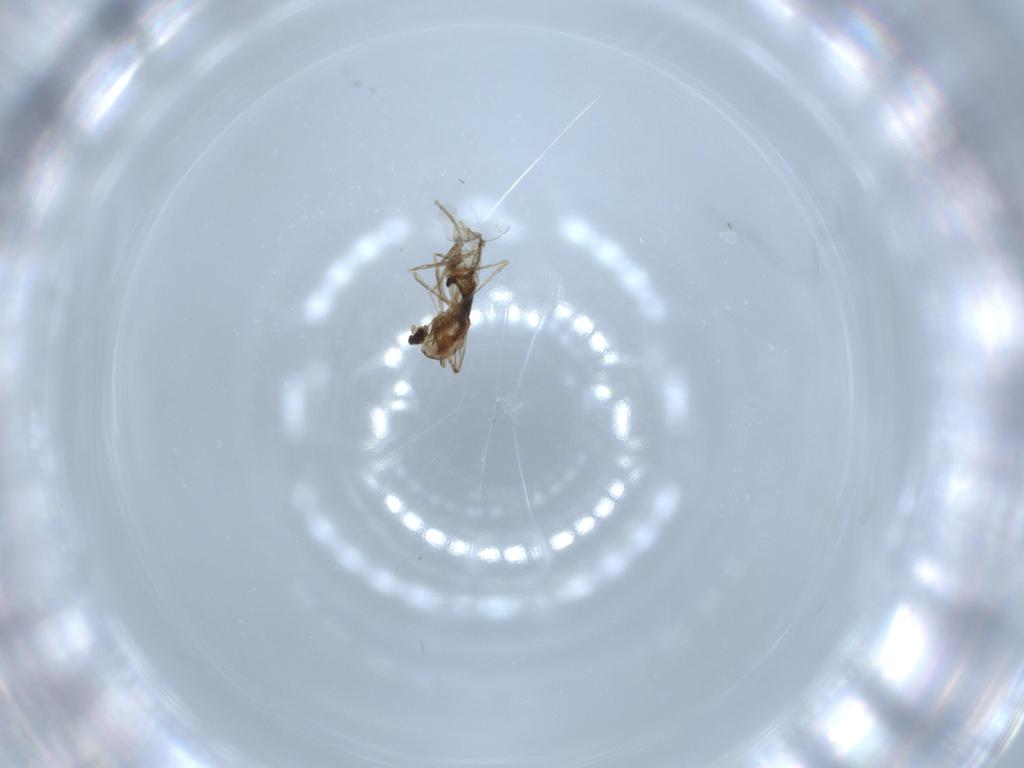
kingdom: Animalia
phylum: Arthropoda
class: Insecta
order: Diptera
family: Cecidomyiidae
